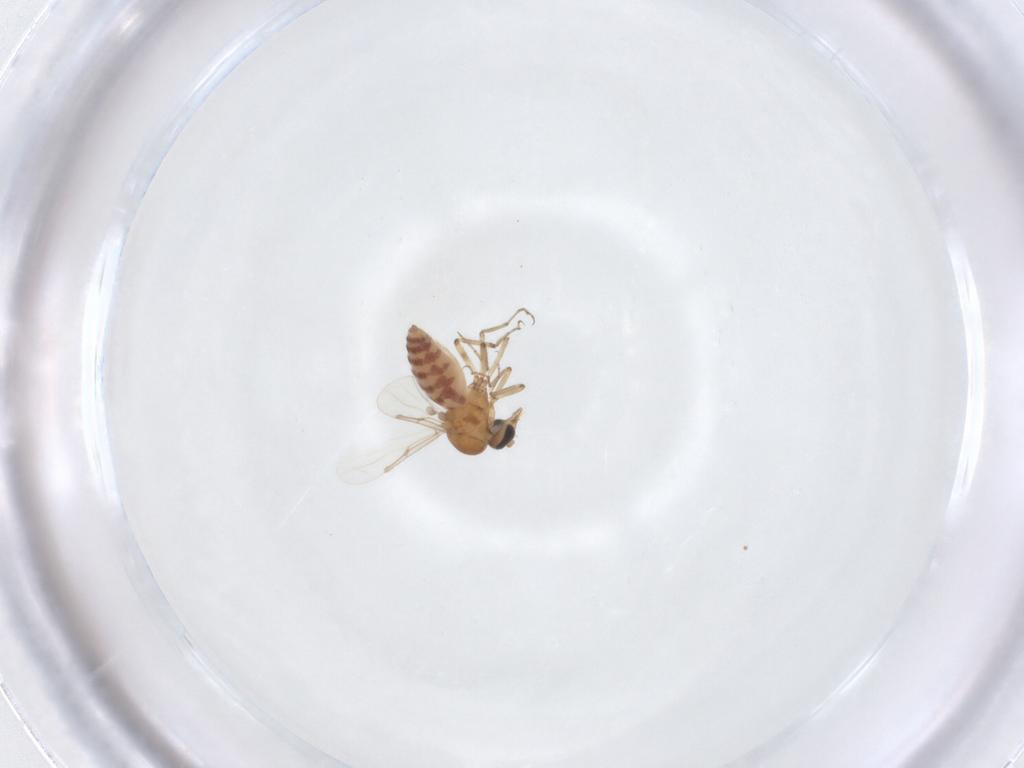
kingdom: Animalia
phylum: Arthropoda
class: Insecta
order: Diptera
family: Ceratopogonidae
